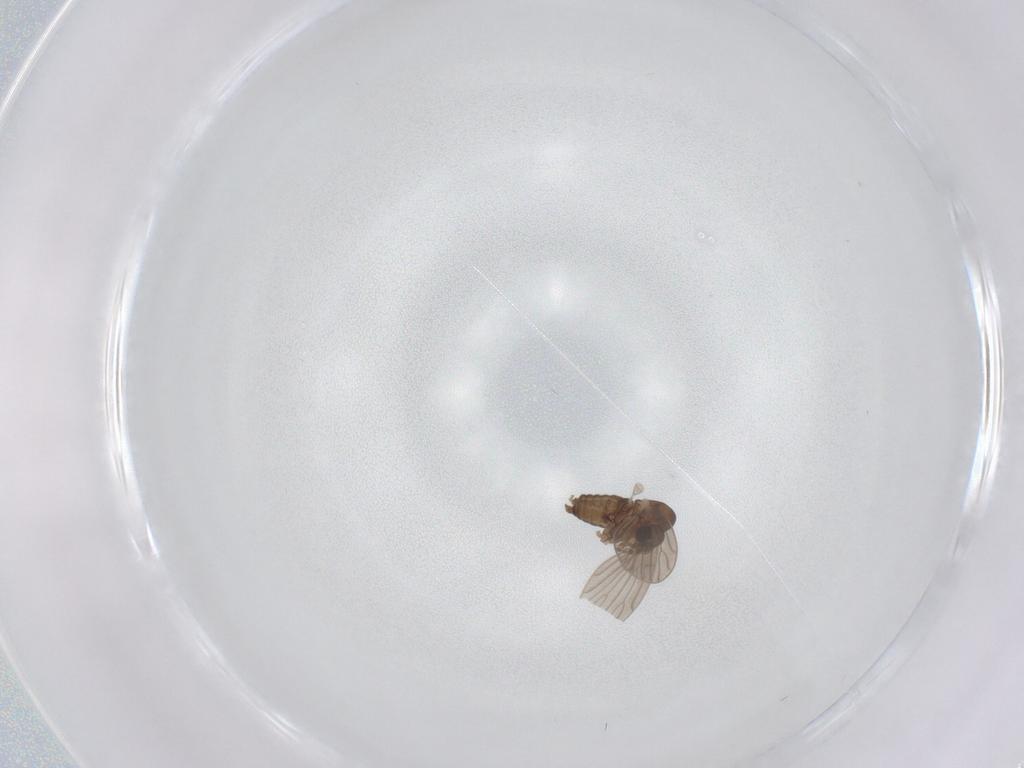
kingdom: Animalia
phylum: Arthropoda
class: Insecta
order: Diptera
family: Psychodidae
